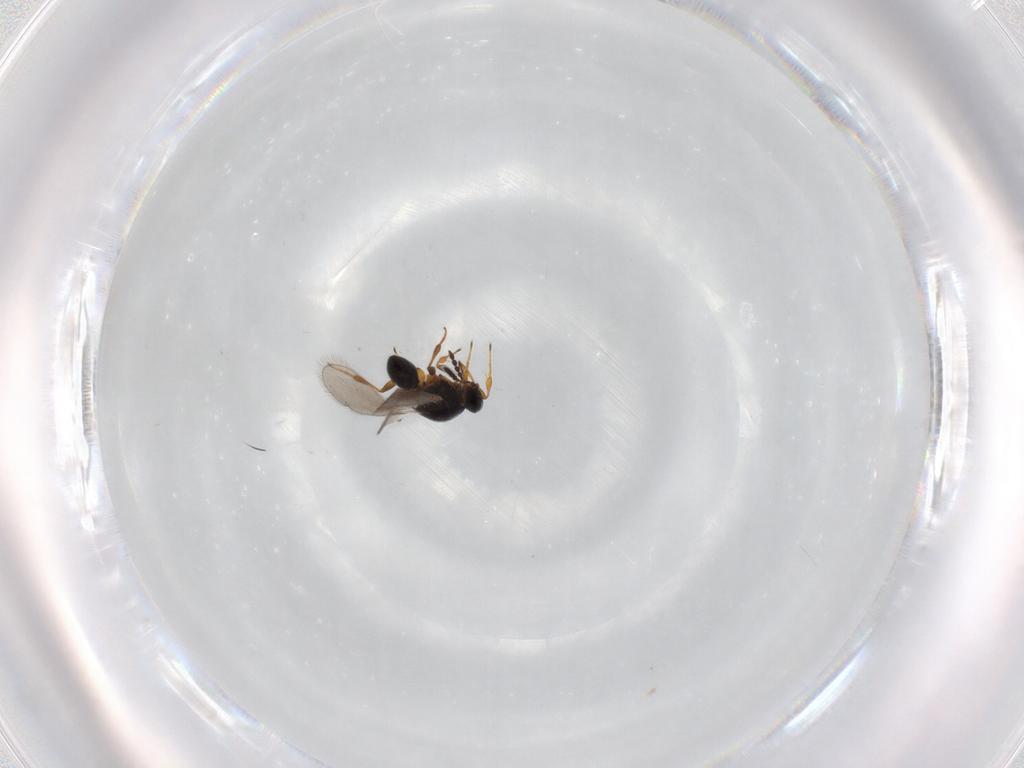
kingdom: Animalia
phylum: Arthropoda
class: Insecta
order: Hymenoptera
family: Platygastridae
